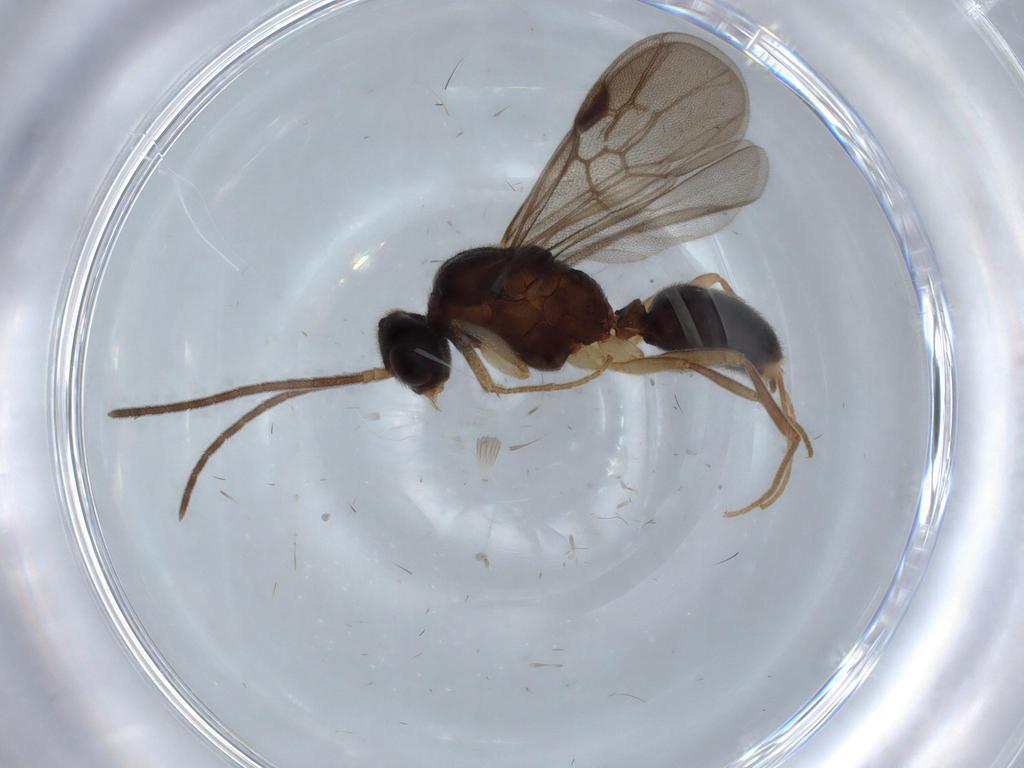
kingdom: Animalia
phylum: Arthropoda
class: Insecta
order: Hymenoptera
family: Formicidae
